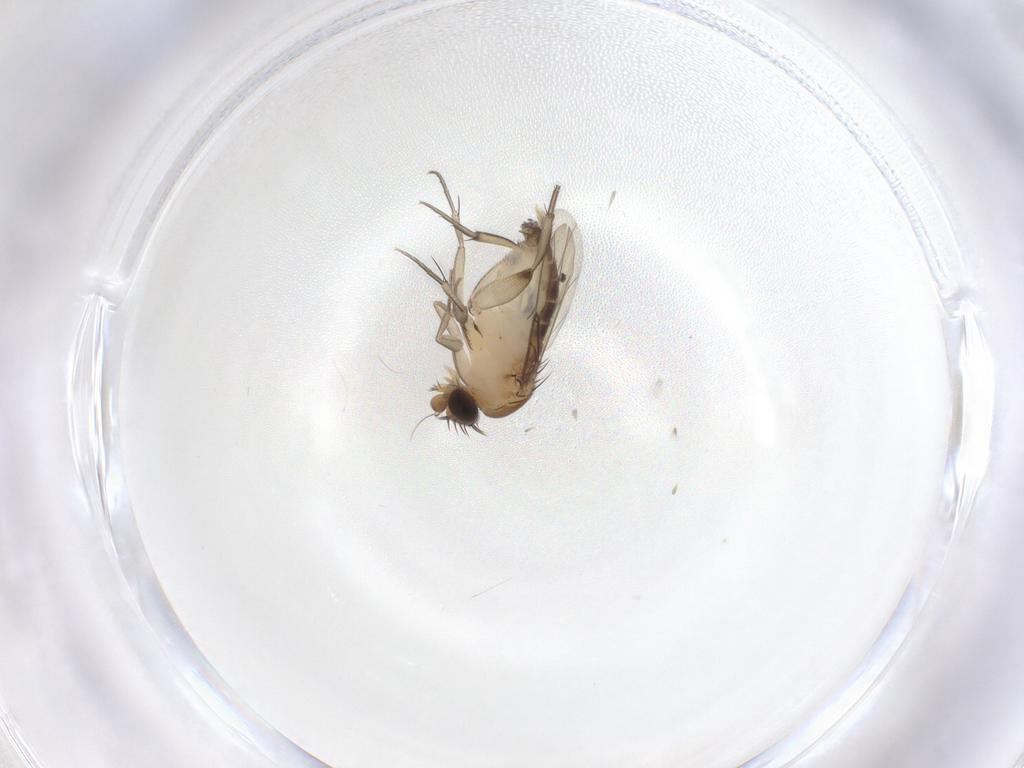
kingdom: Animalia
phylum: Arthropoda
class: Insecta
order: Diptera
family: Phoridae
